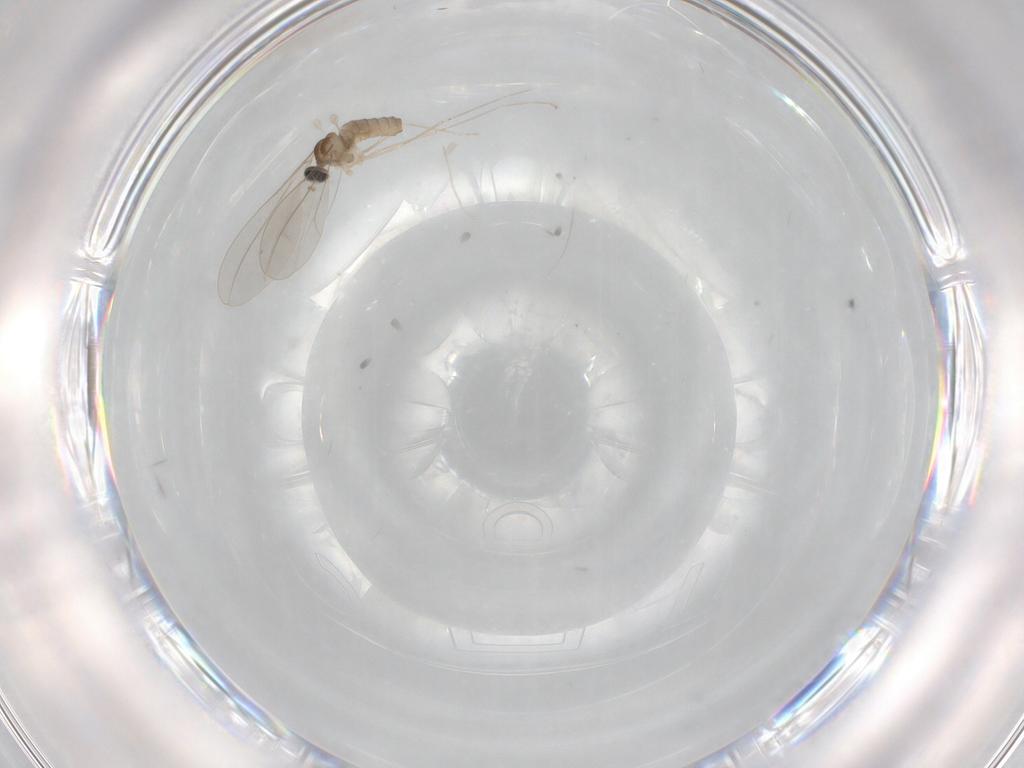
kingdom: Animalia
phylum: Arthropoda
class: Insecta
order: Diptera
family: Dolichopodidae
